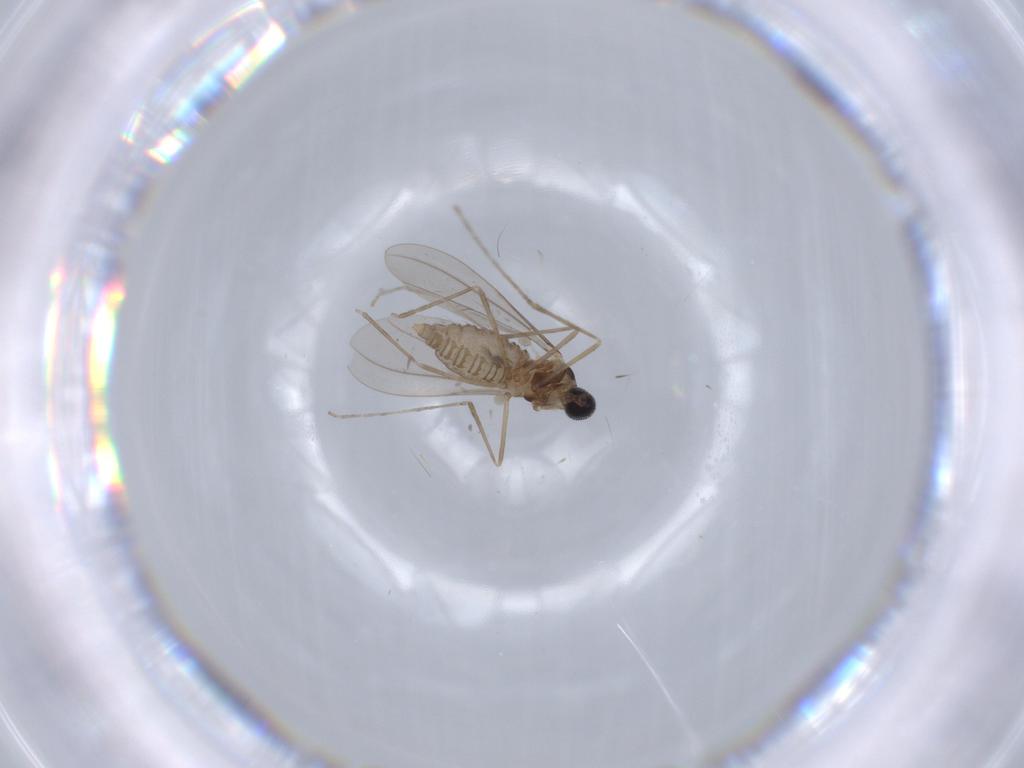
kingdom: Animalia
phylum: Arthropoda
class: Insecta
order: Diptera
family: Cecidomyiidae
